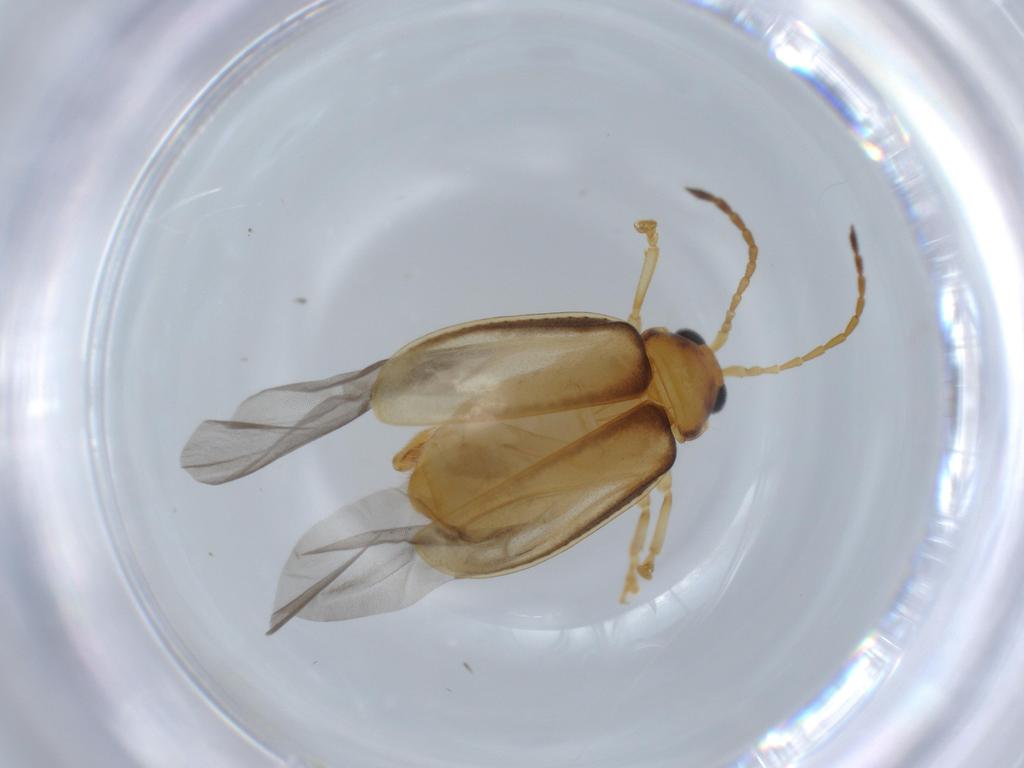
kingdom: Animalia
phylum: Arthropoda
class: Insecta
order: Coleoptera
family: Chrysomelidae
